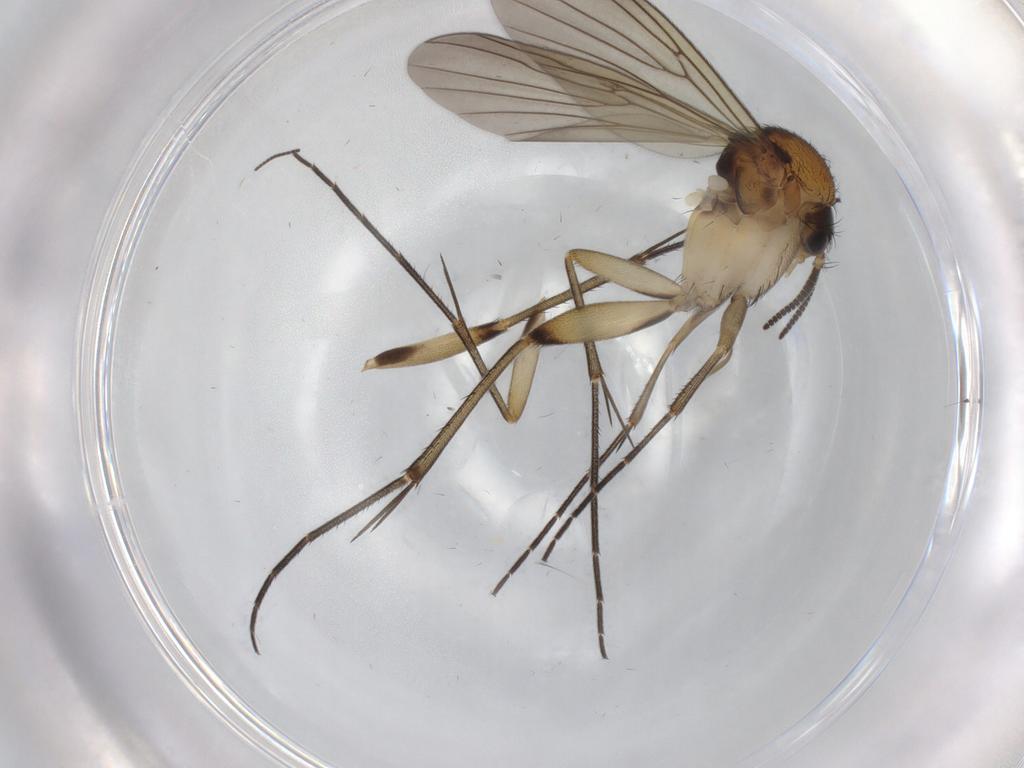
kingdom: Animalia
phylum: Arthropoda
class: Insecta
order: Diptera
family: Mycetophilidae
